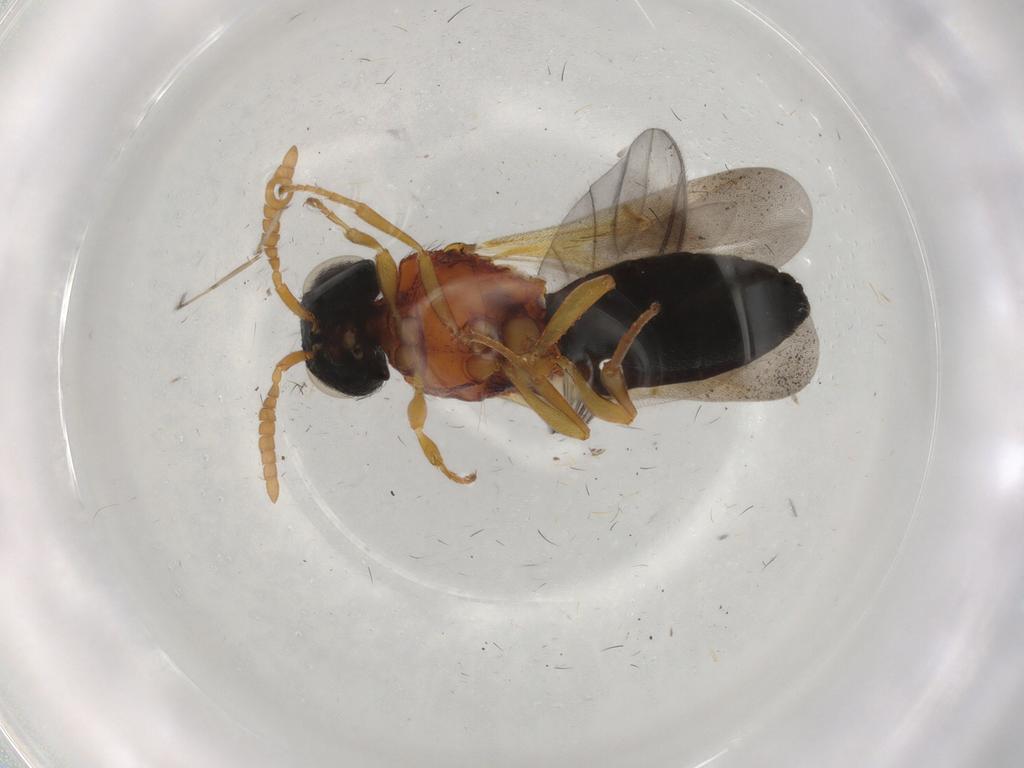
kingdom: Animalia
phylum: Arthropoda
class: Insecta
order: Hymenoptera
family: Scelionidae
